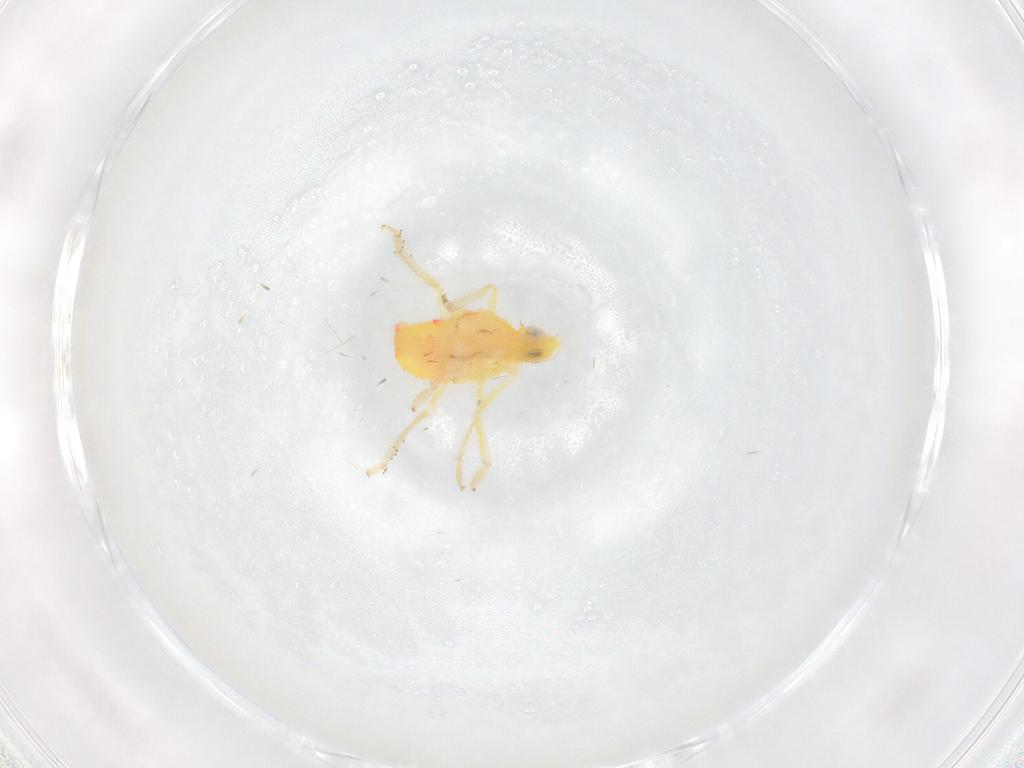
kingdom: Animalia
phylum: Arthropoda
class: Insecta
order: Hemiptera
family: Tropiduchidae
